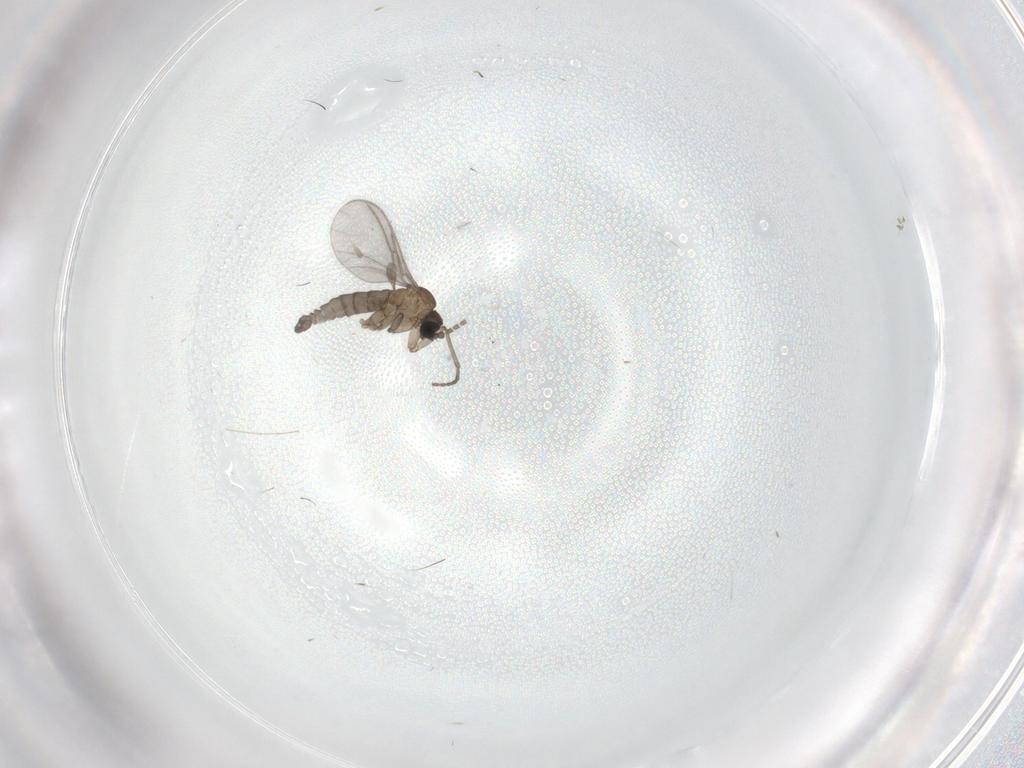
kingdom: Animalia
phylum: Arthropoda
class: Insecta
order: Diptera
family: Sciaridae
